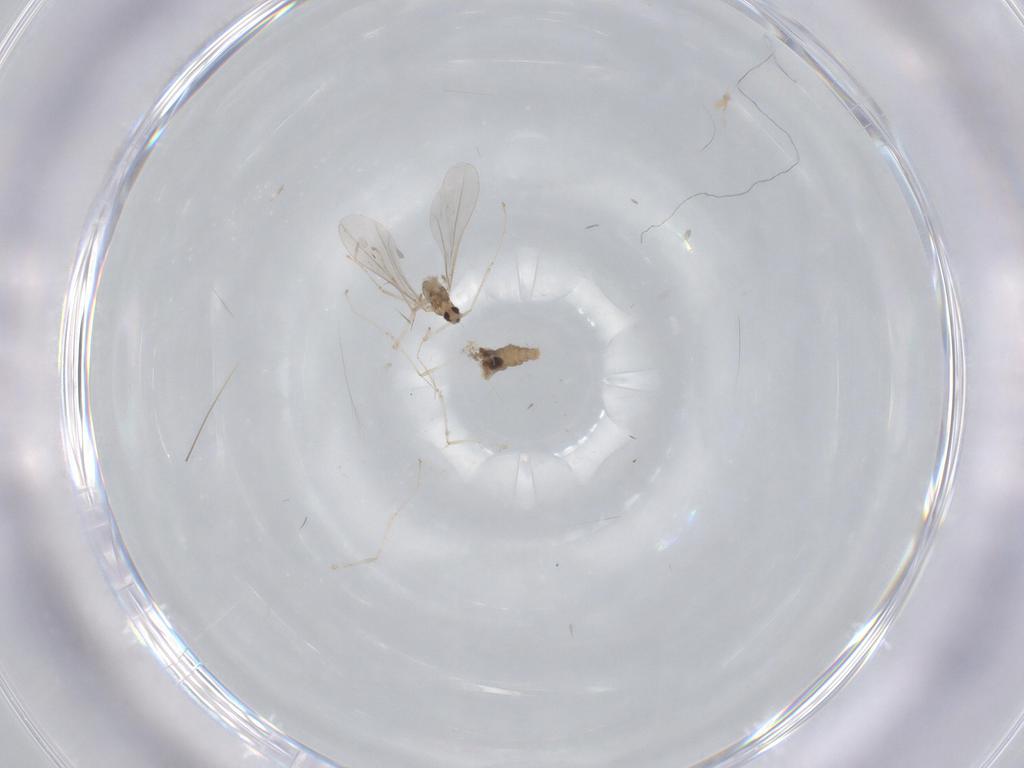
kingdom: Animalia
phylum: Arthropoda
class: Insecta
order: Diptera
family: Cecidomyiidae
